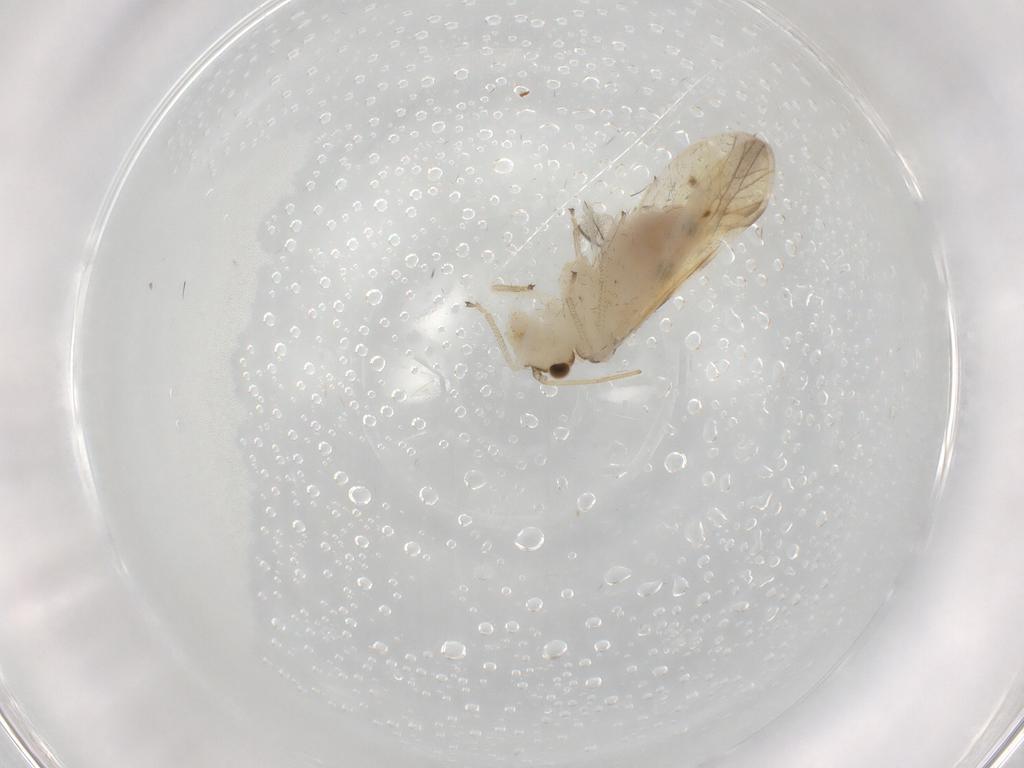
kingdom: Animalia
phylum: Arthropoda
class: Insecta
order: Psocodea
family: Caeciliusidae
